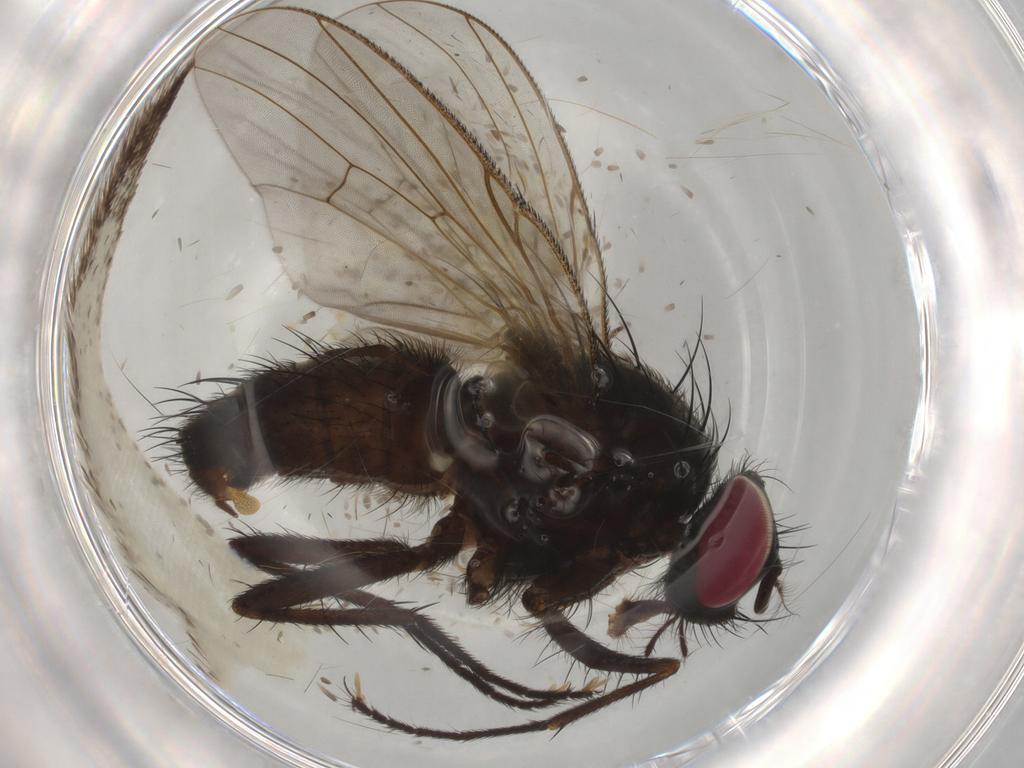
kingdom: Animalia
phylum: Arthropoda
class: Insecta
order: Diptera
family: Muscidae
